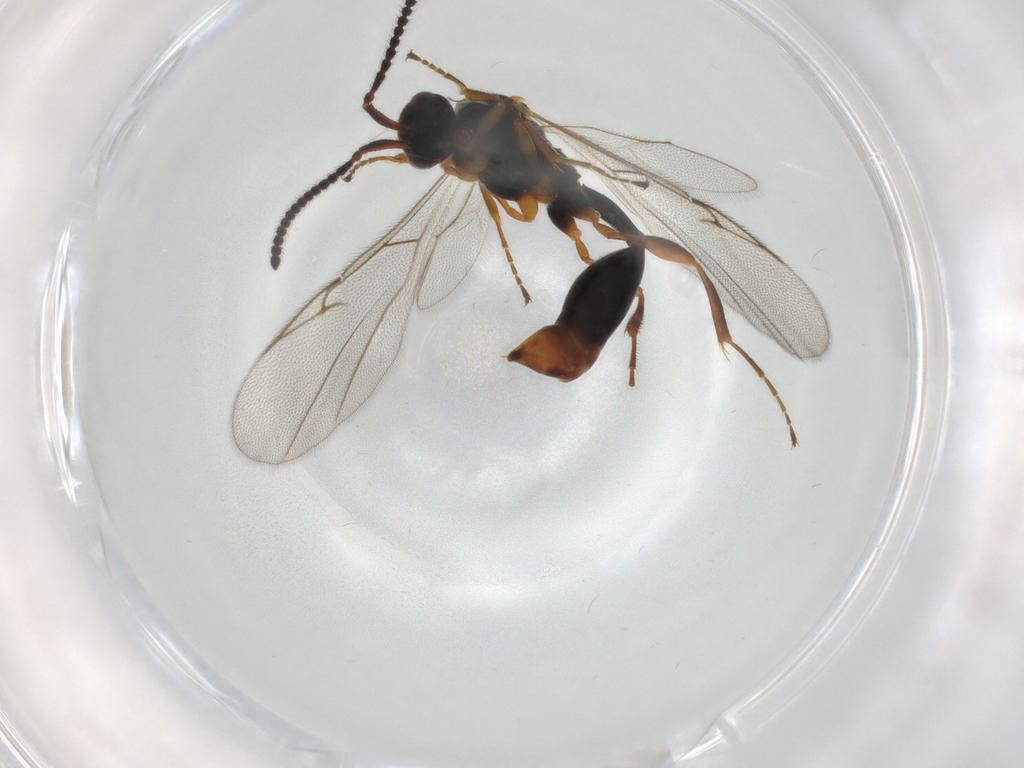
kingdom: Animalia
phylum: Arthropoda
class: Insecta
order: Hymenoptera
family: Diapriidae
